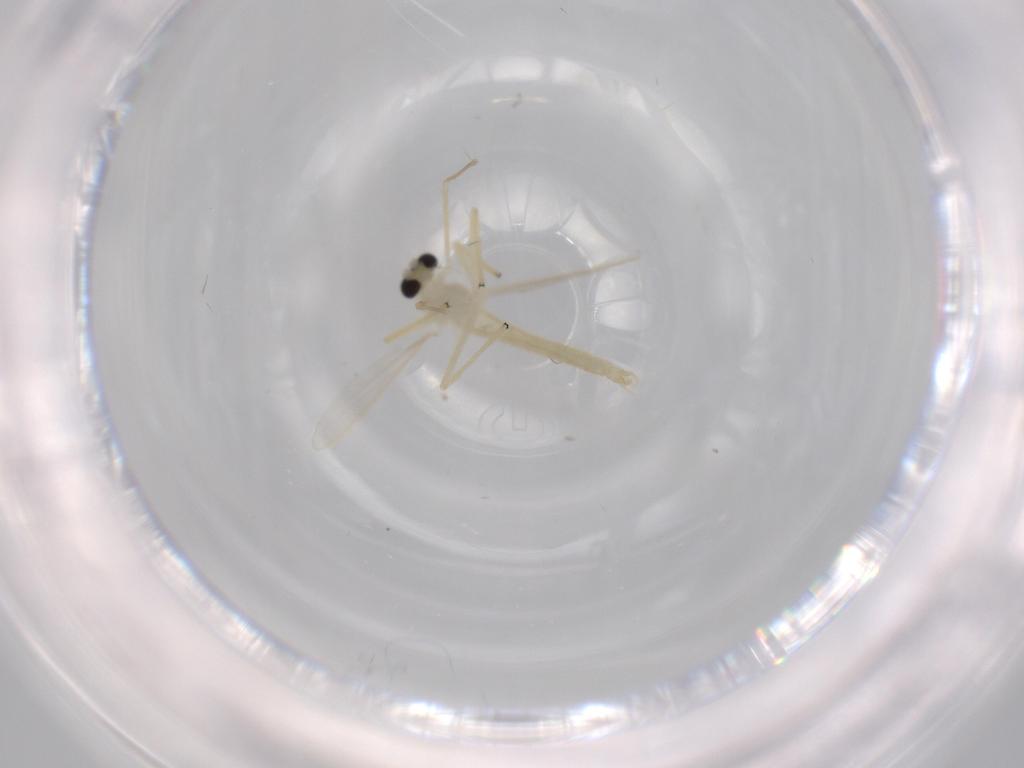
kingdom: Animalia
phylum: Arthropoda
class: Insecta
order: Diptera
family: Chironomidae
